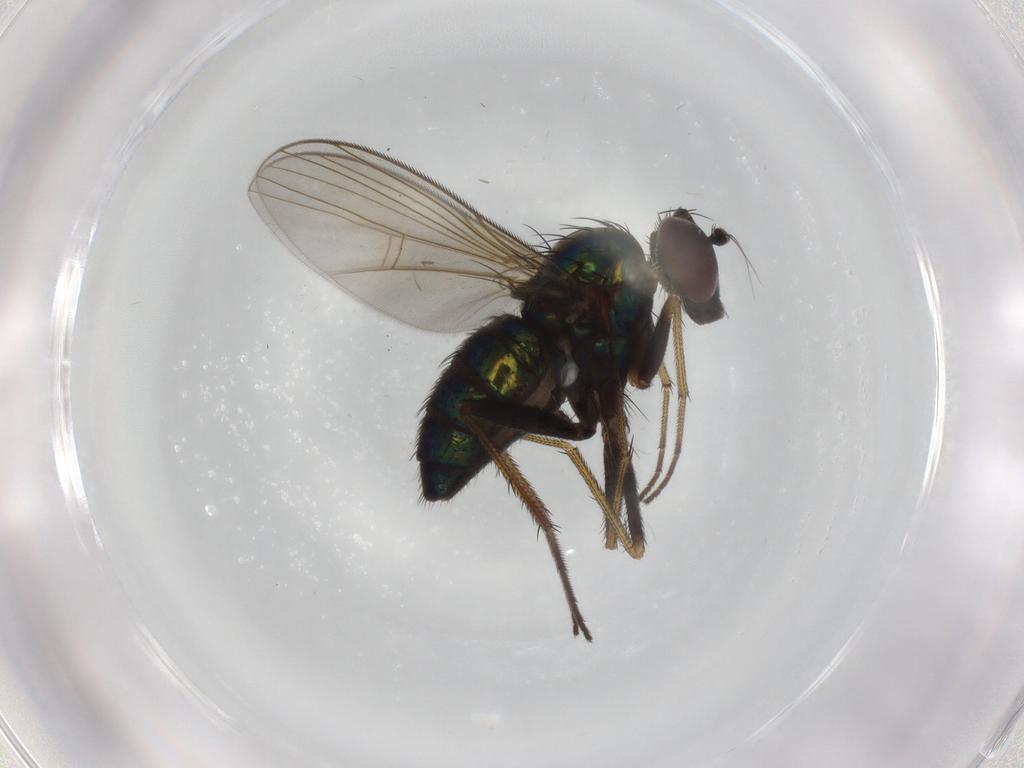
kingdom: Animalia
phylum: Arthropoda
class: Insecta
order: Diptera
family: Dolichopodidae
